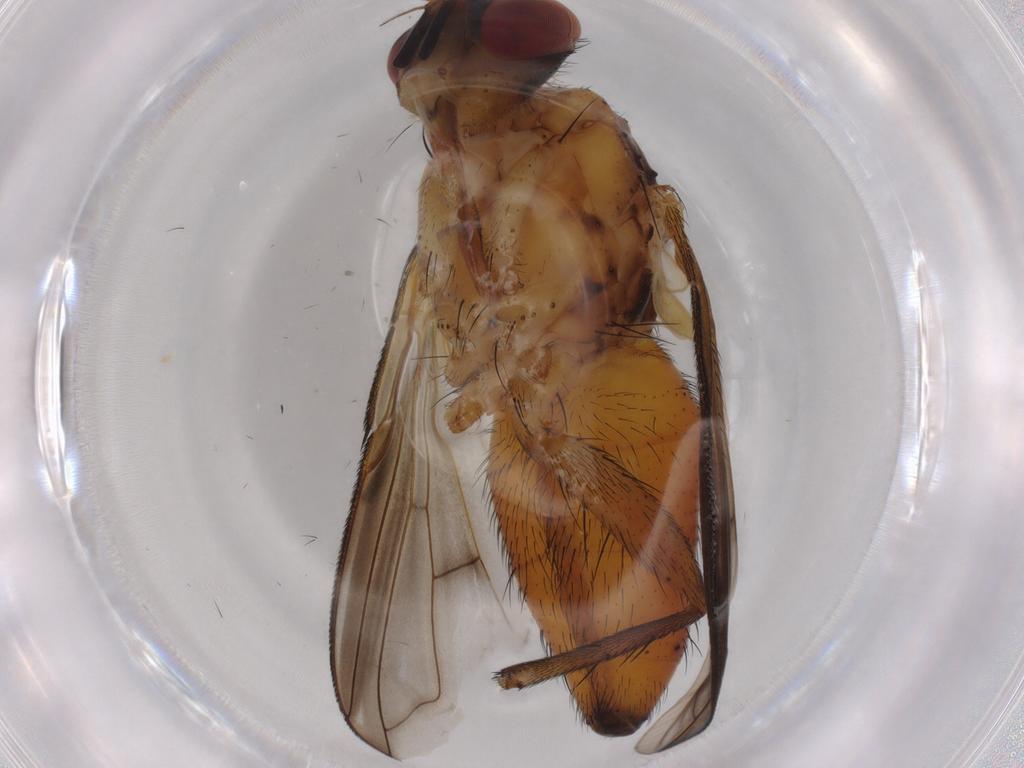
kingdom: Animalia
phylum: Arthropoda
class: Insecta
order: Diptera
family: Tachinidae
